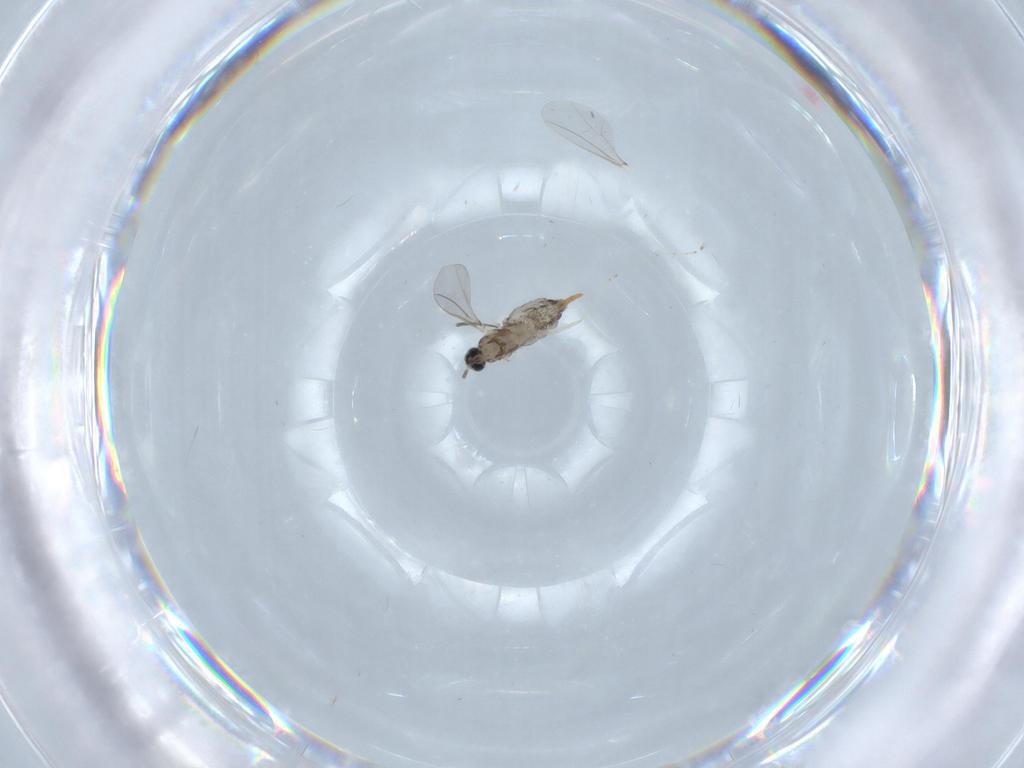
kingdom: Animalia
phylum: Arthropoda
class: Insecta
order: Diptera
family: Cecidomyiidae
